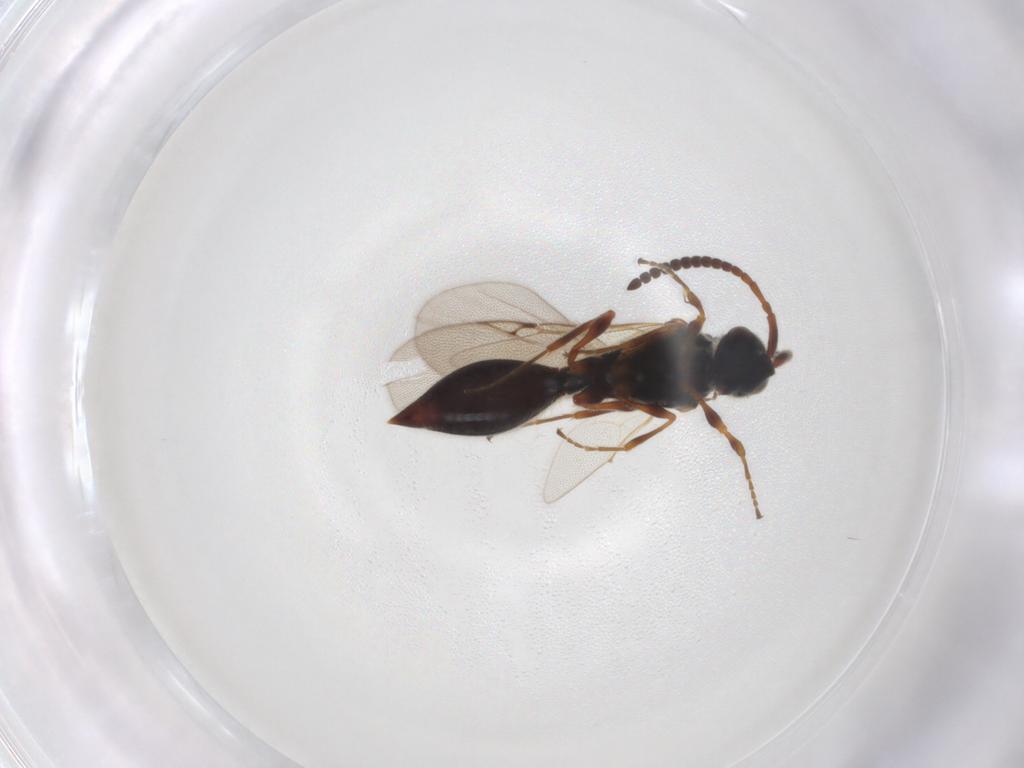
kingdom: Animalia
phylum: Arthropoda
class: Insecta
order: Hymenoptera
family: Diapriidae
